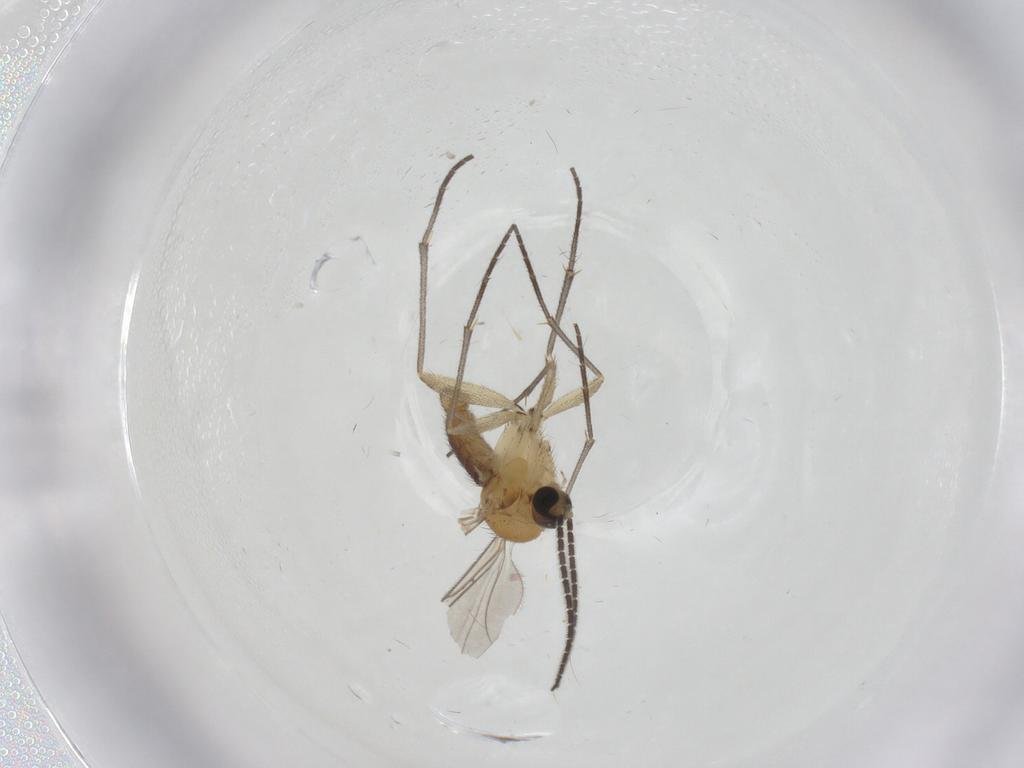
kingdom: Animalia
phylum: Arthropoda
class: Insecta
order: Diptera
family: Sciaridae
